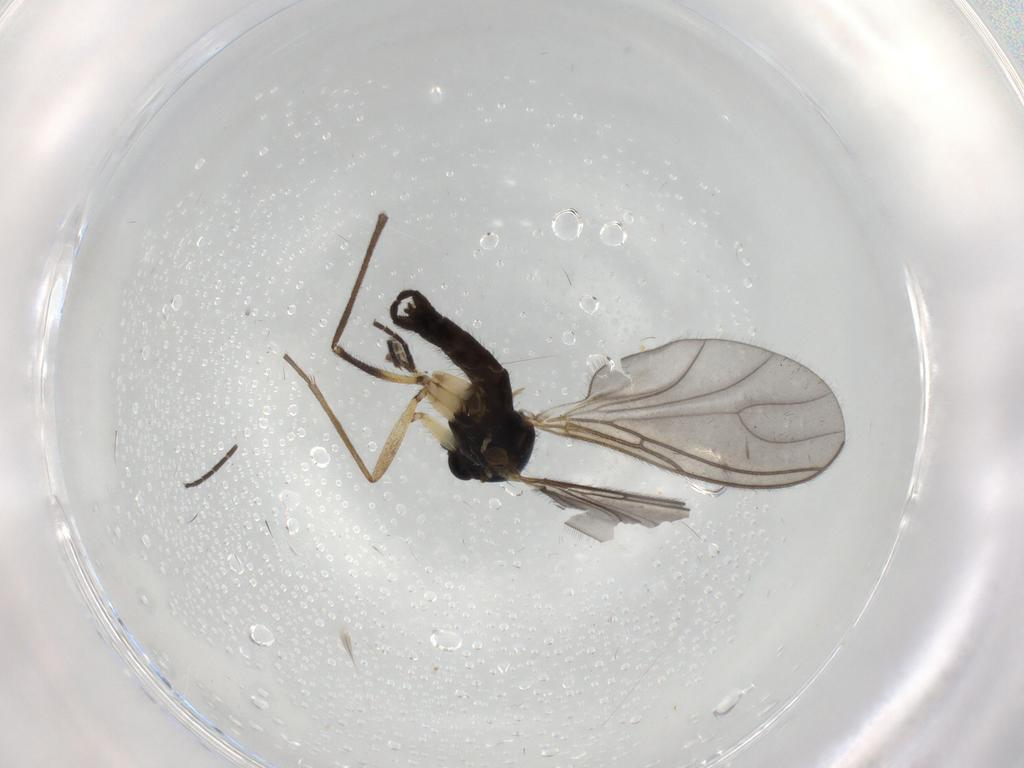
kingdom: Animalia
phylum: Arthropoda
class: Insecta
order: Diptera
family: Sciaridae
